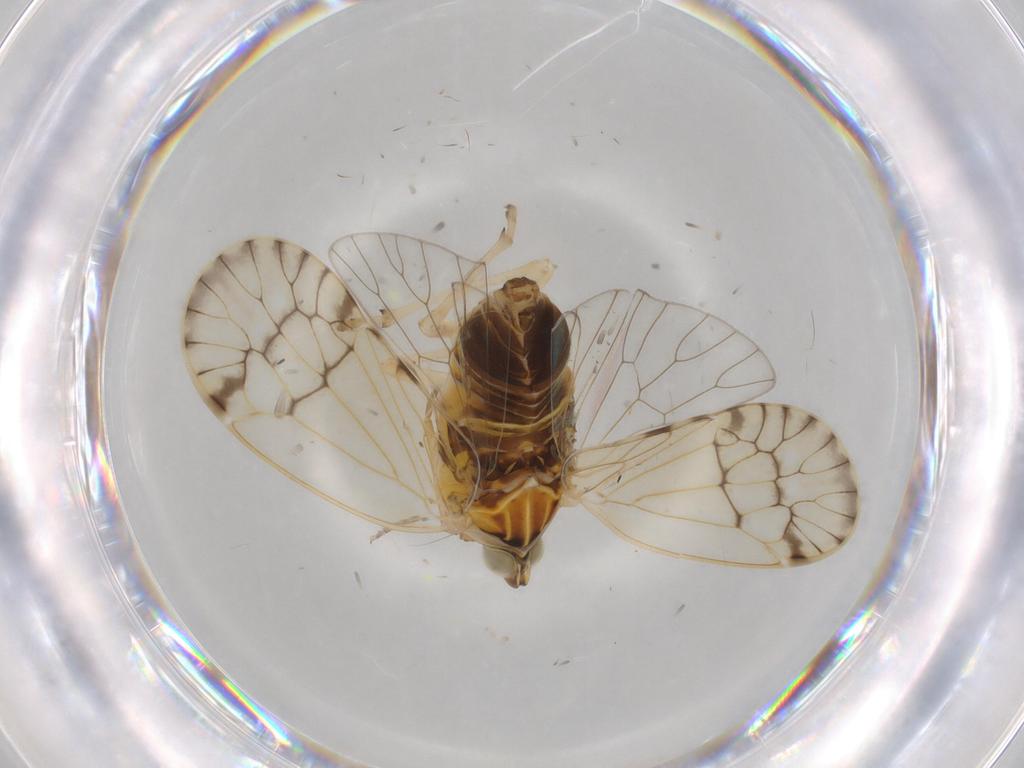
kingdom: Animalia
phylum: Arthropoda
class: Insecta
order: Hemiptera
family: Kinnaridae
